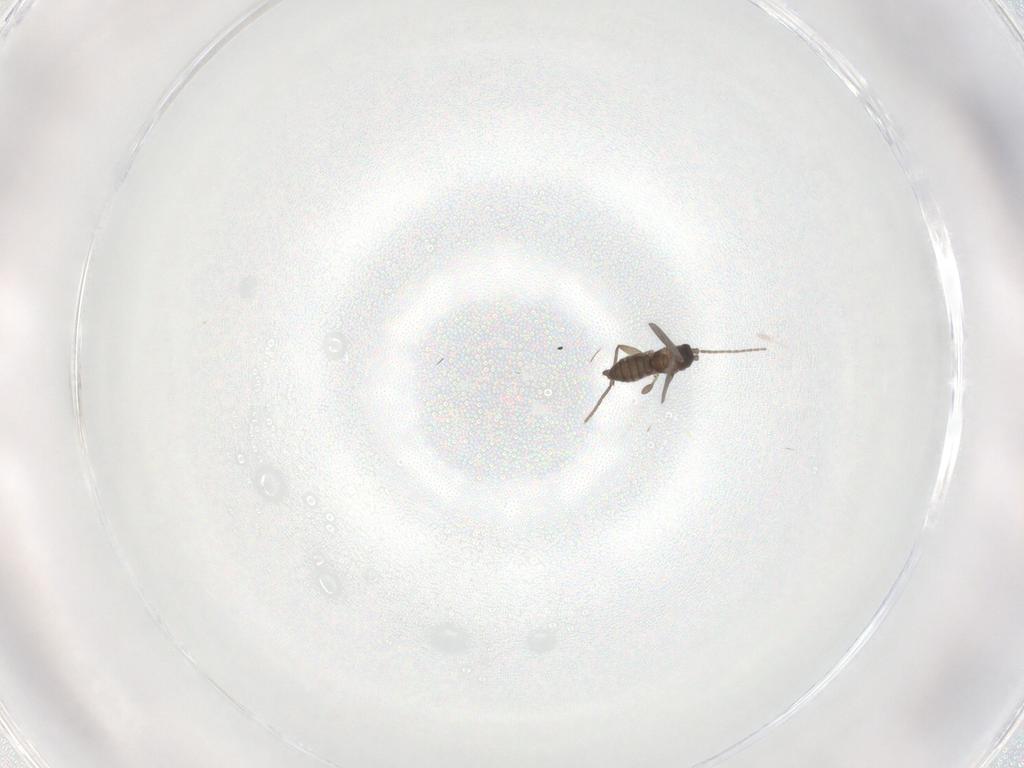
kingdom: Animalia
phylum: Arthropoda
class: Insecta
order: Diptera
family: Sciaridae
